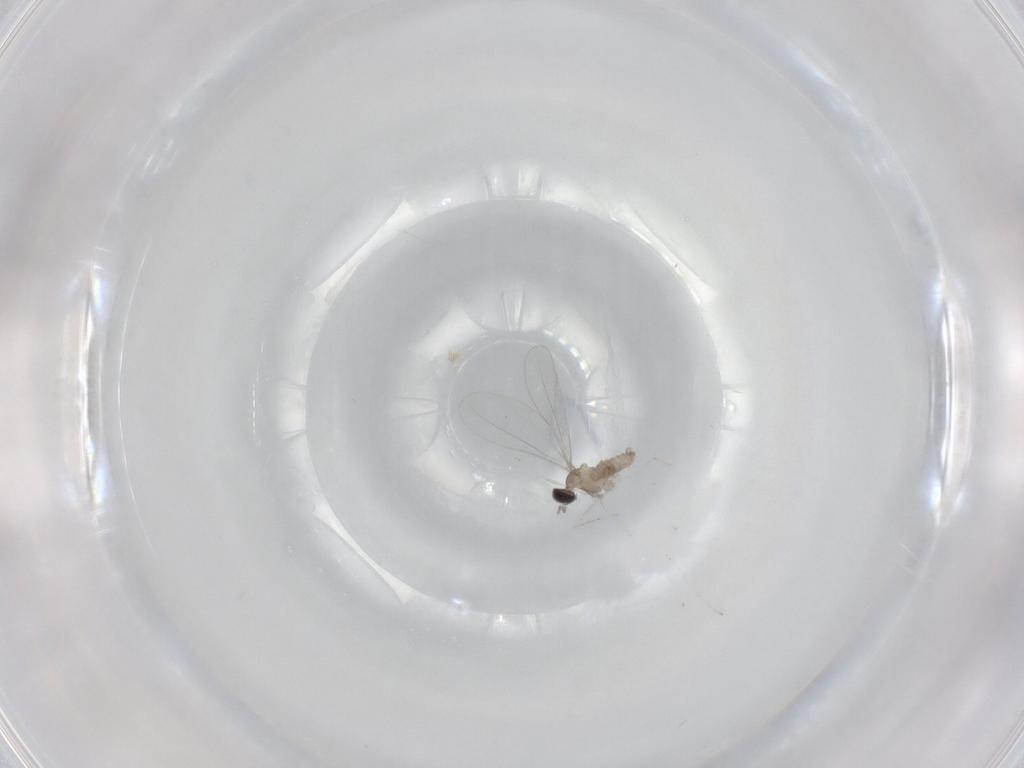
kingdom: Animalia
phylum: Arthropoda
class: Insecta
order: Diptera
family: Cecidomyiidae
